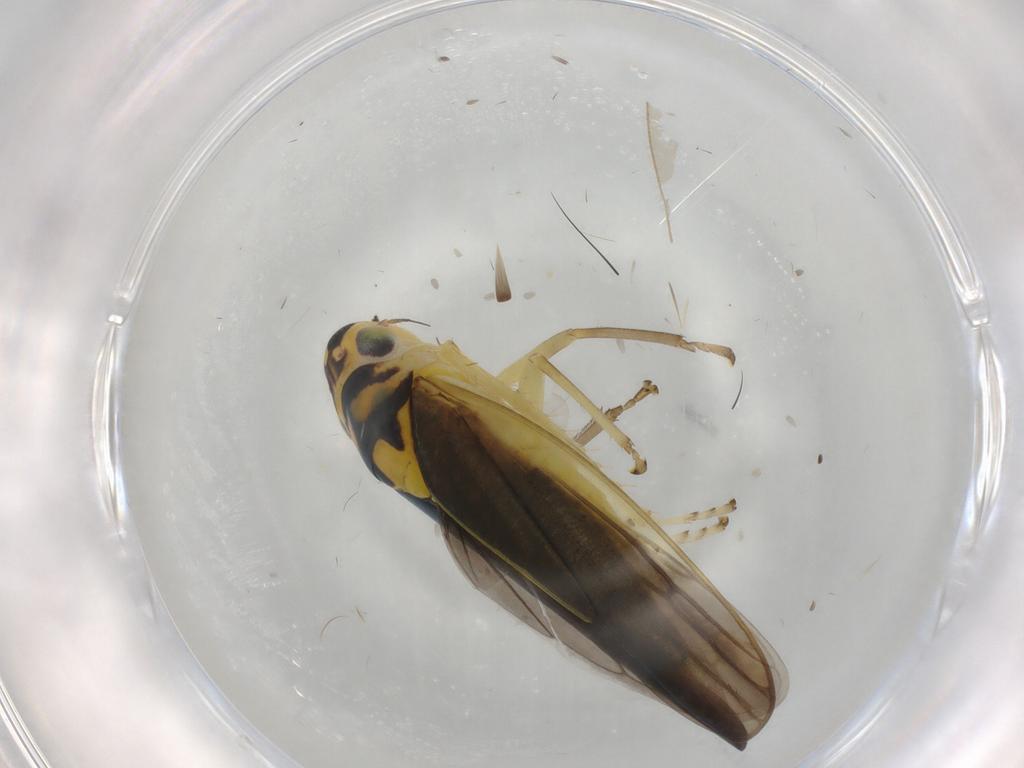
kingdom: Animalia
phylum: Arthropoda
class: Insecta
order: Hemiptera
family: Cicadellidae
